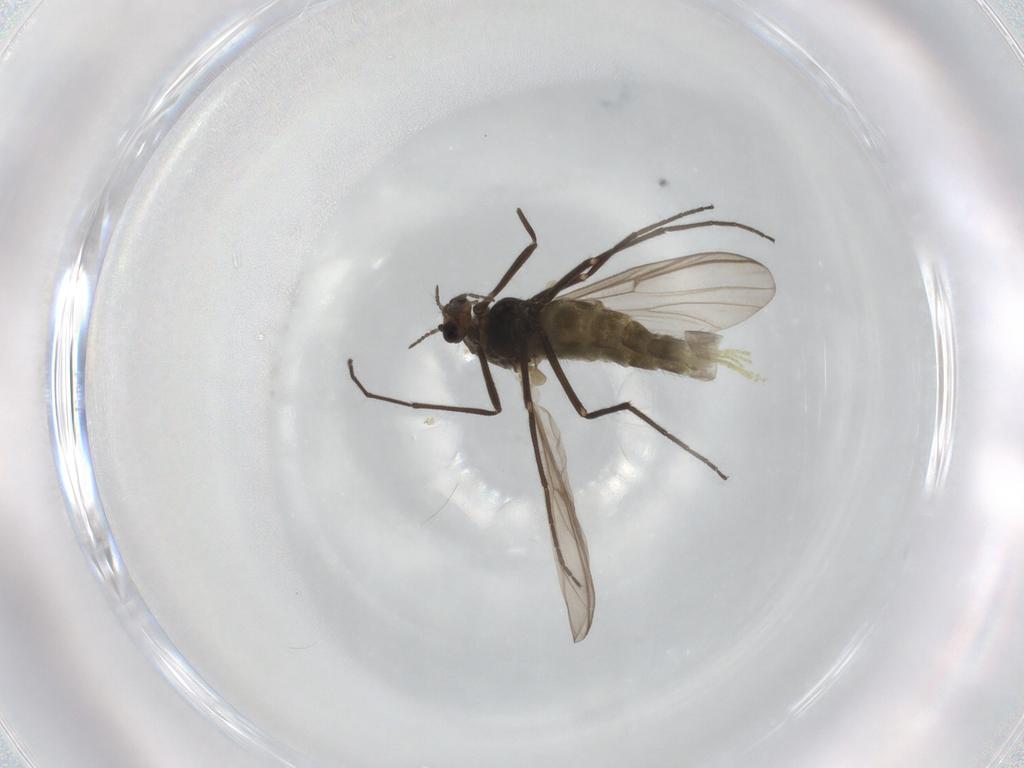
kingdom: Animalia
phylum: Arthropoda
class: Insecta
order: Diptera
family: Chironomidae
